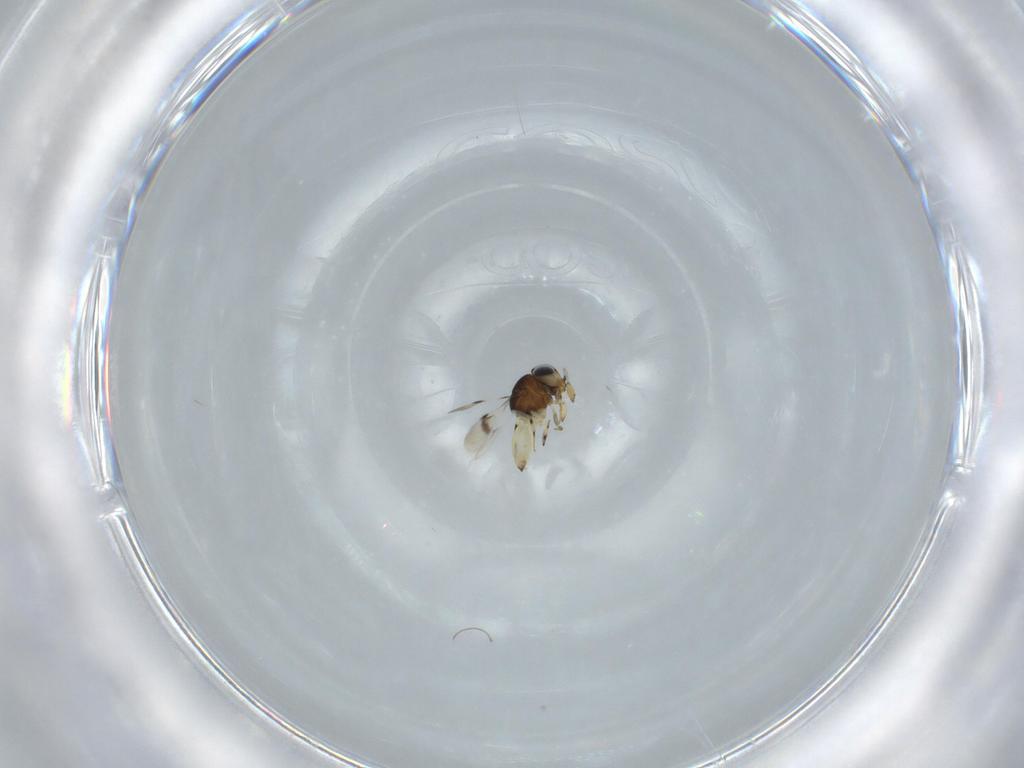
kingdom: Animalia
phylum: Arthropoda
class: Insecta
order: Hymenoptera
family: Scelionidae
